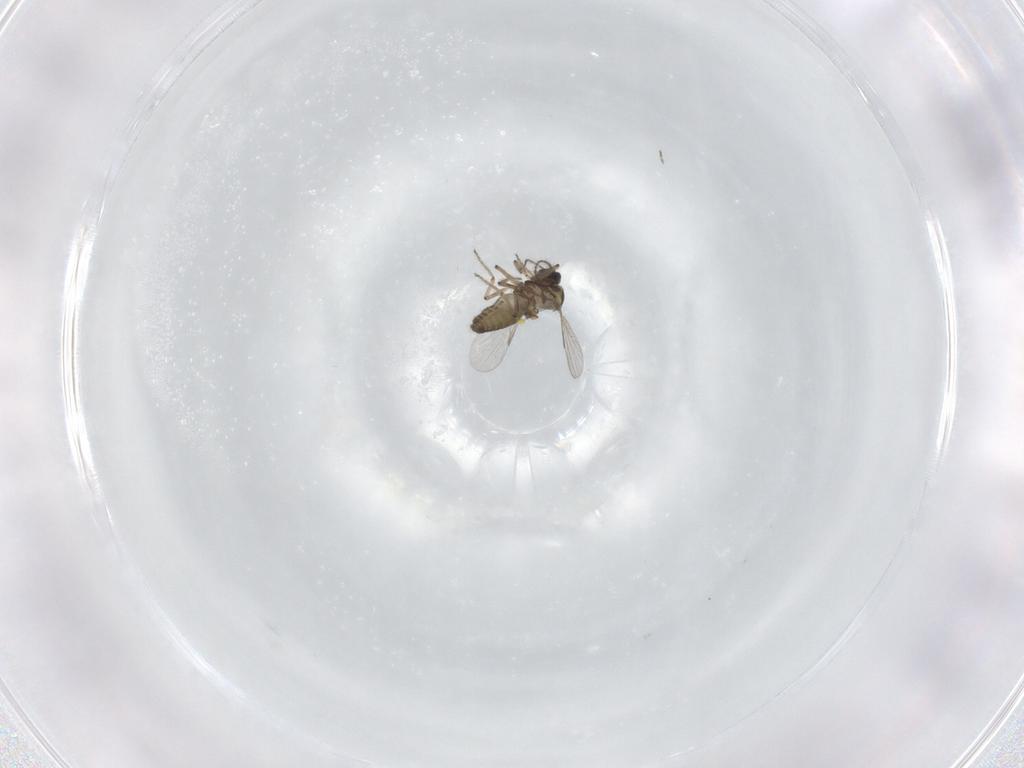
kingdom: Animalia
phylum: Arthropoda
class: Insecta
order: Diptera
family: Ceratopogonidae
